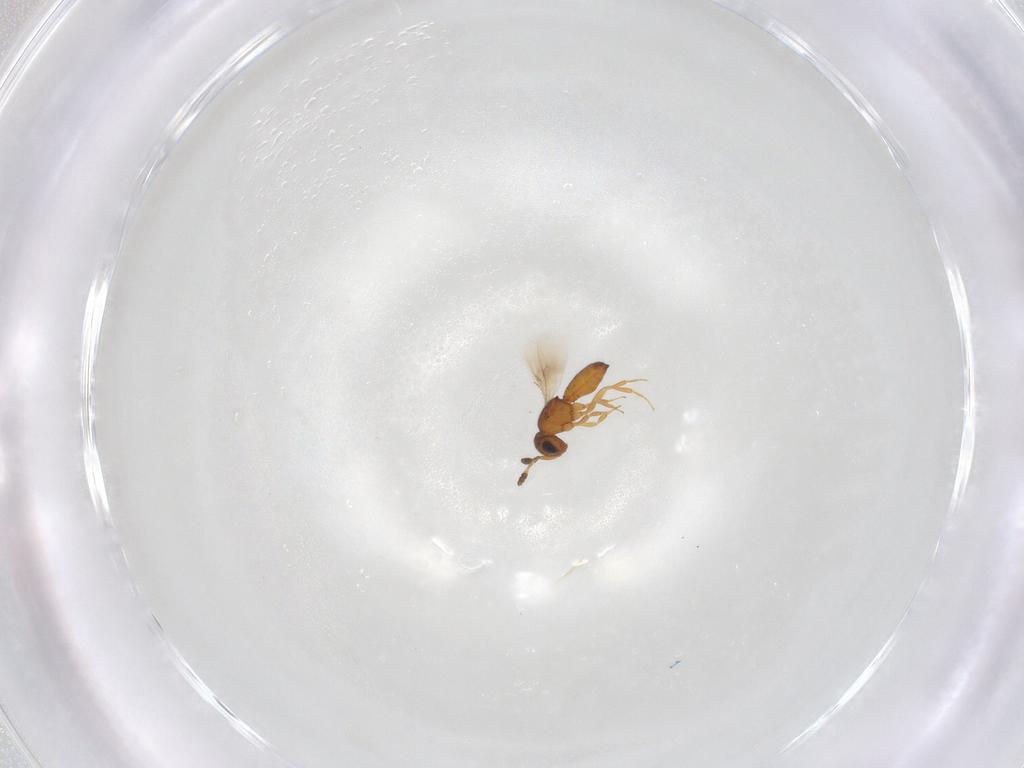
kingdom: Animalia
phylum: Arthropoda
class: Insecta
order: Hymenoptera
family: Scelionidae
